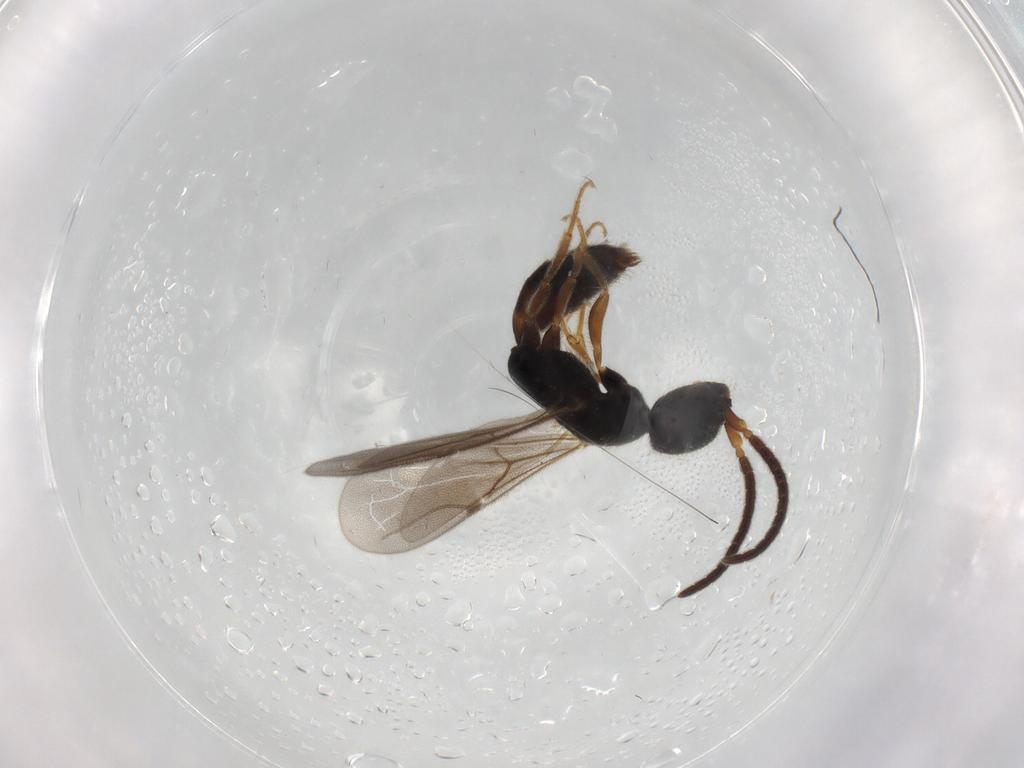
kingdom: Animalia
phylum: Arthropoda
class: Insecta
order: Hymenoptera
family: Bethylidae
